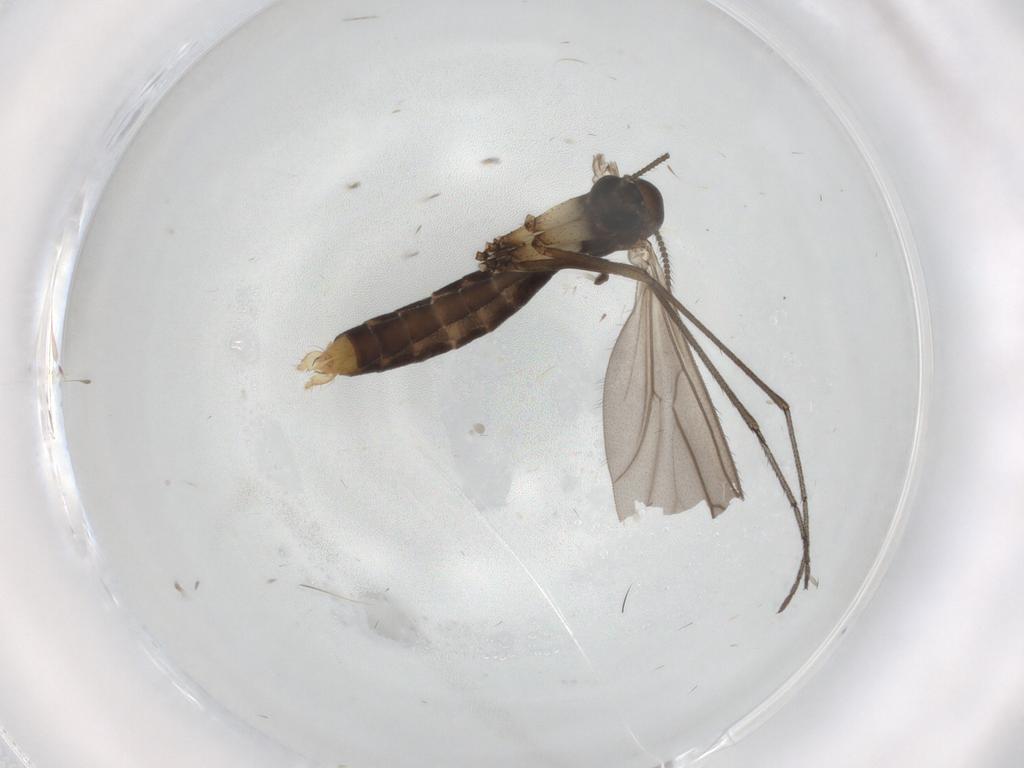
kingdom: Animalia
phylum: Arthropoda
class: Insecta
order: Diptera
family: Ditomyiidae
